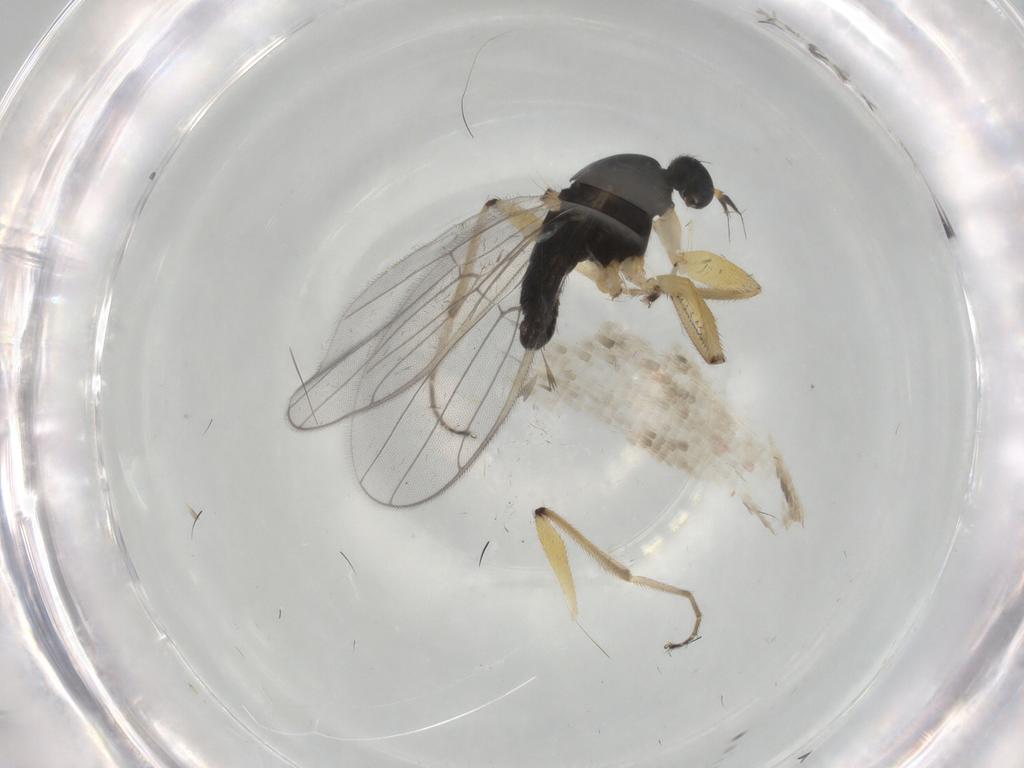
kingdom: Animalia
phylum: Arthropoda
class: Insecta
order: Diptera
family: Hybotidae
